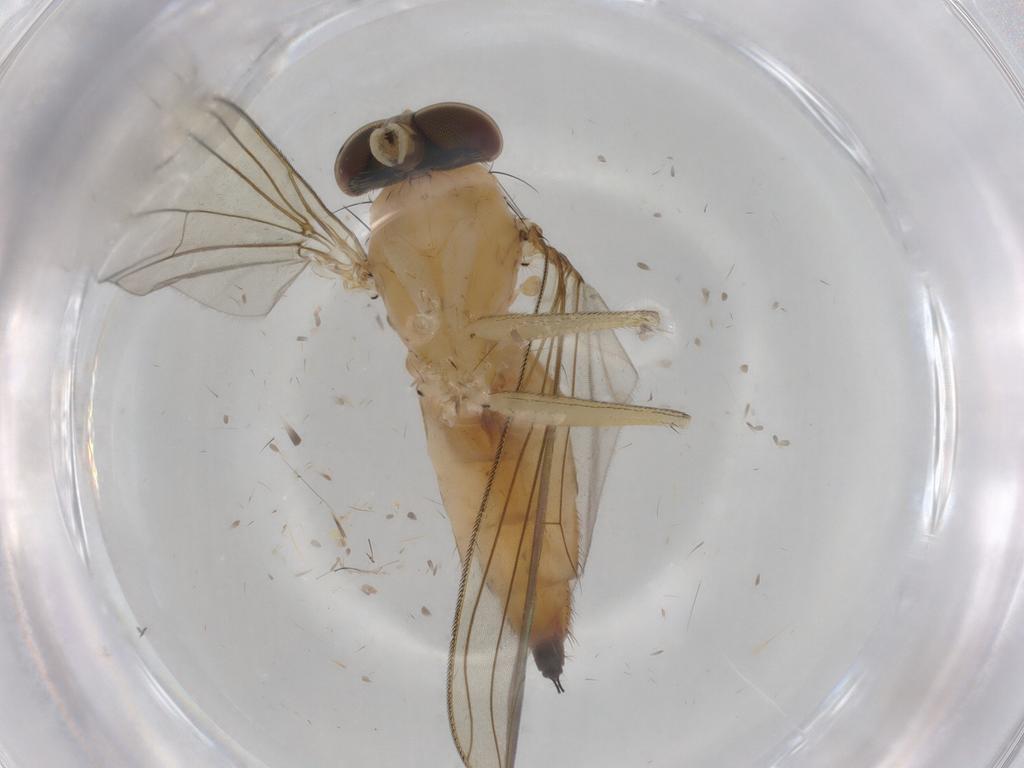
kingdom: Animalia
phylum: Arthropoda
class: Insecta
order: Diptera
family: Dolichopodidae
